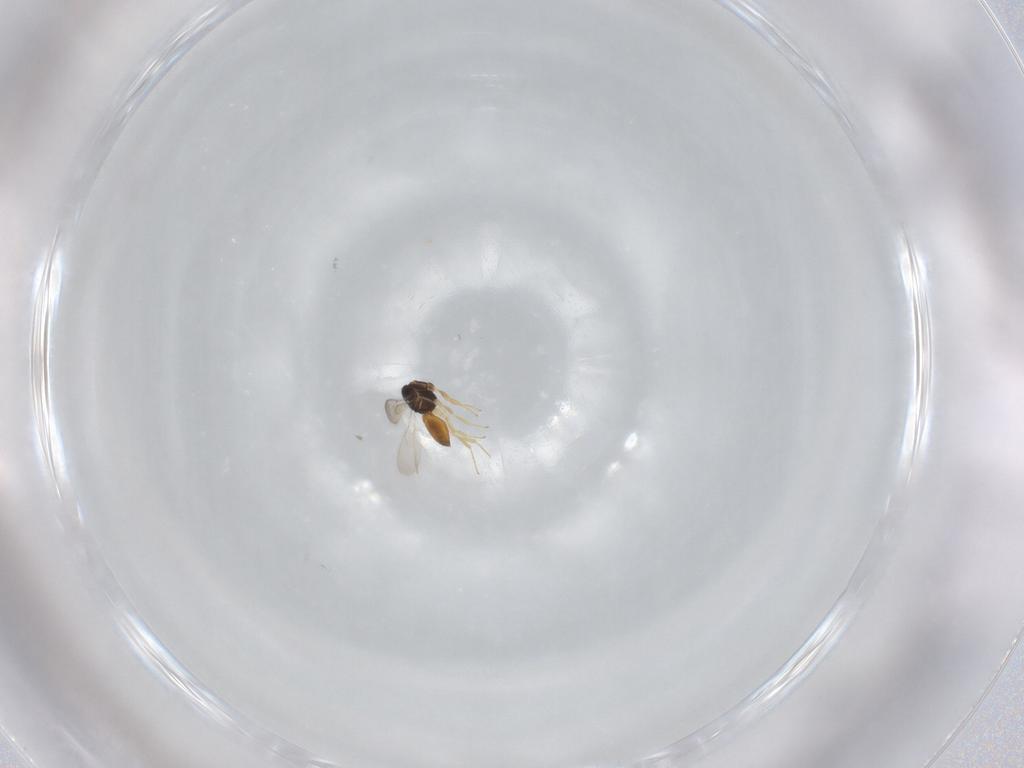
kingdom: Animalia
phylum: Arthropoda
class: Insecta
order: Hymenoptera
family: Scelionidae
